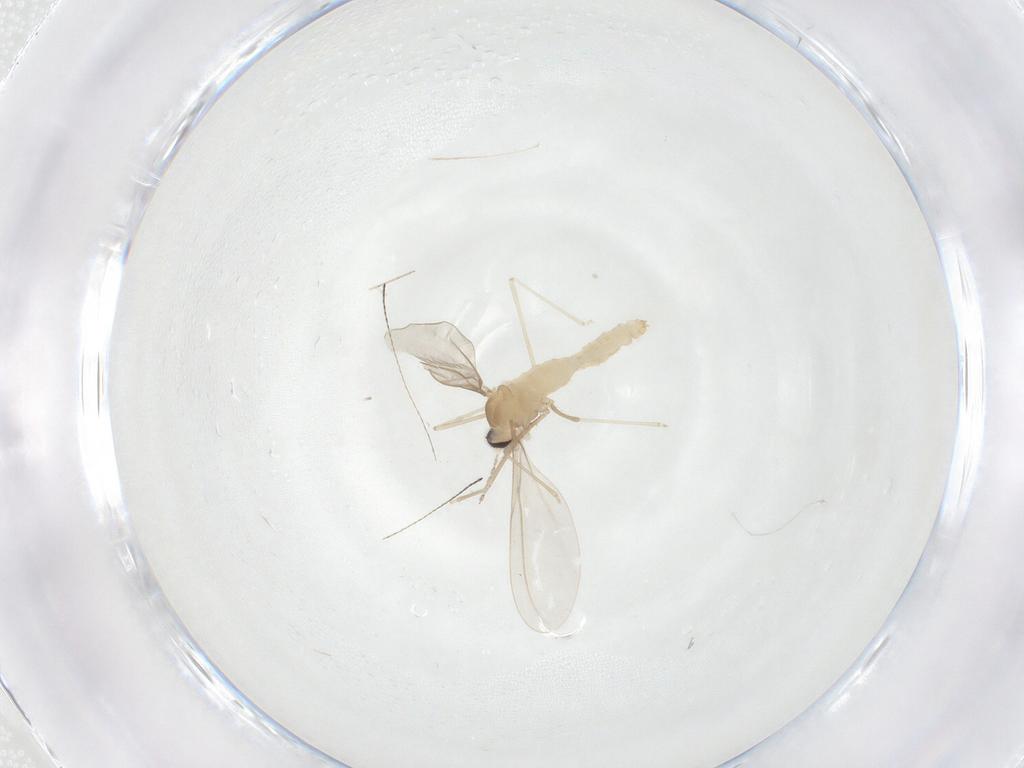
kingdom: Animalia
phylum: Arthropoda
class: Insecta
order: Diptera
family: Cecidomyiidae
